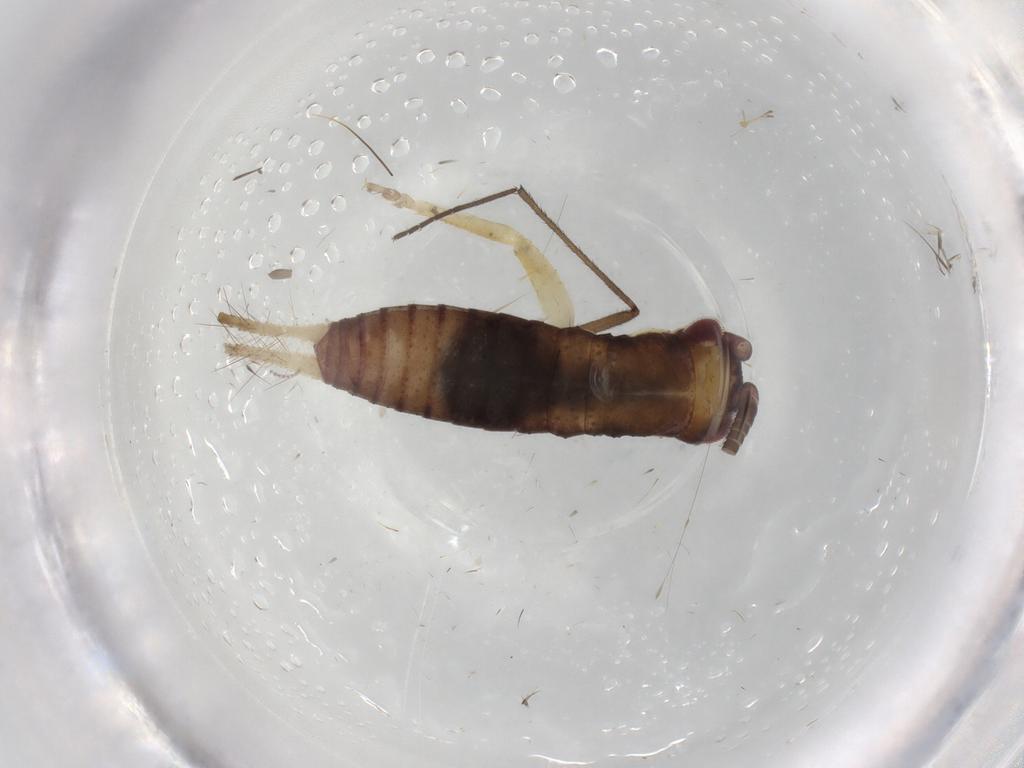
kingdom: Animalia
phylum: Arthropoda
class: Insecta
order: Orthoptera
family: Gryllidae
